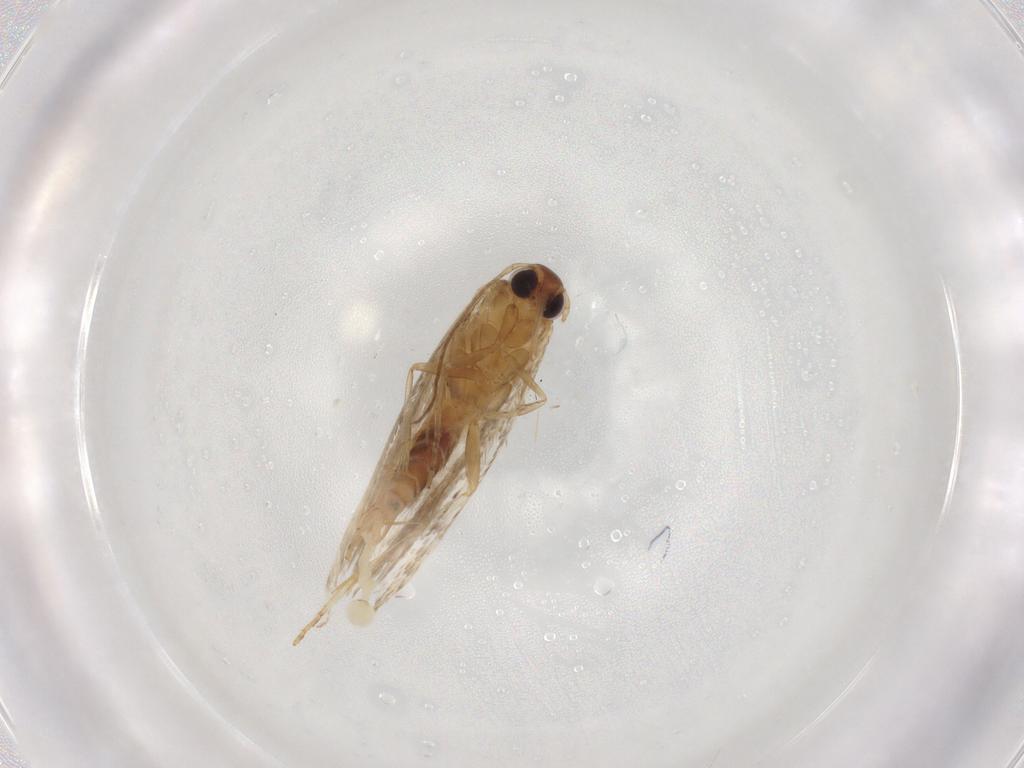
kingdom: Animalia
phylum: Arthropoda
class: Insecta
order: Lepidoptera
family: Cosmopterigidae
